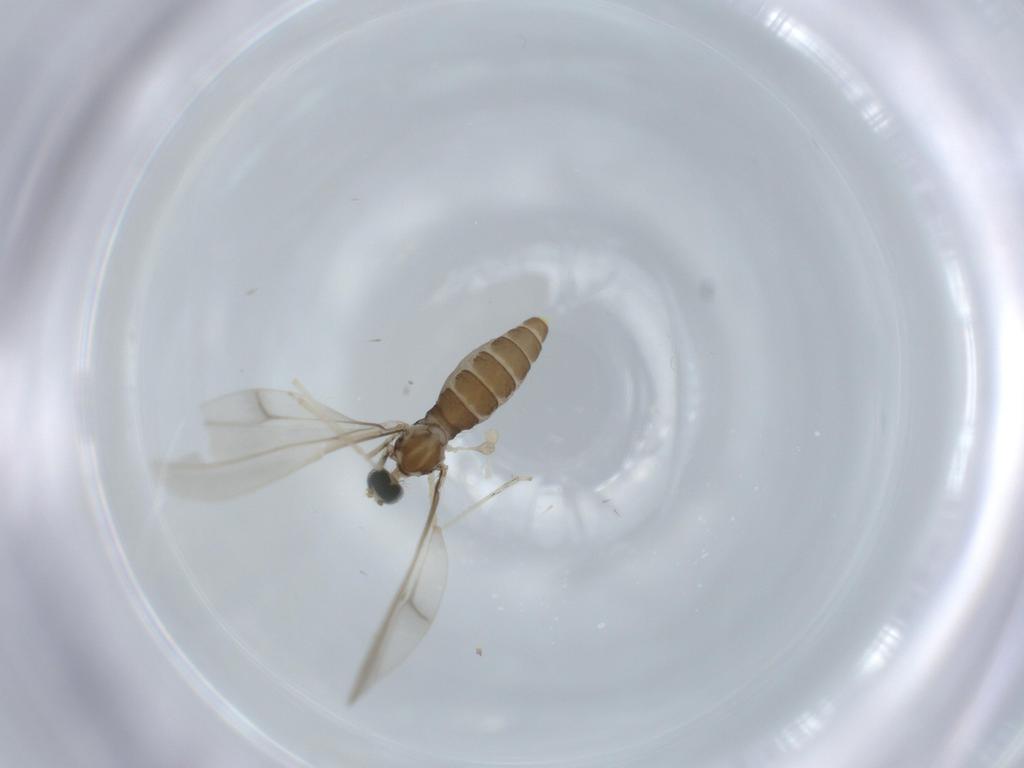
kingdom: Animalia
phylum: Arthropoda
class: Insecta
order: Diptera
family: Cecidomyiidae
